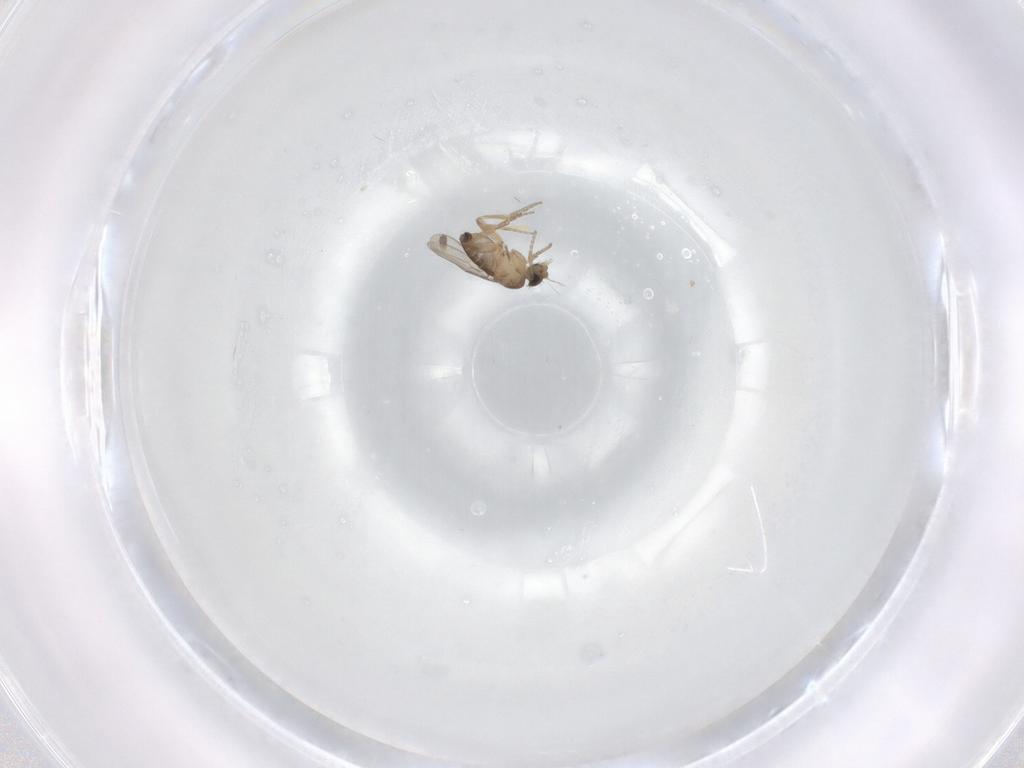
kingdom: Animalia
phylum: Arthropoda
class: Insecta
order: Diptera
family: Phoridae
